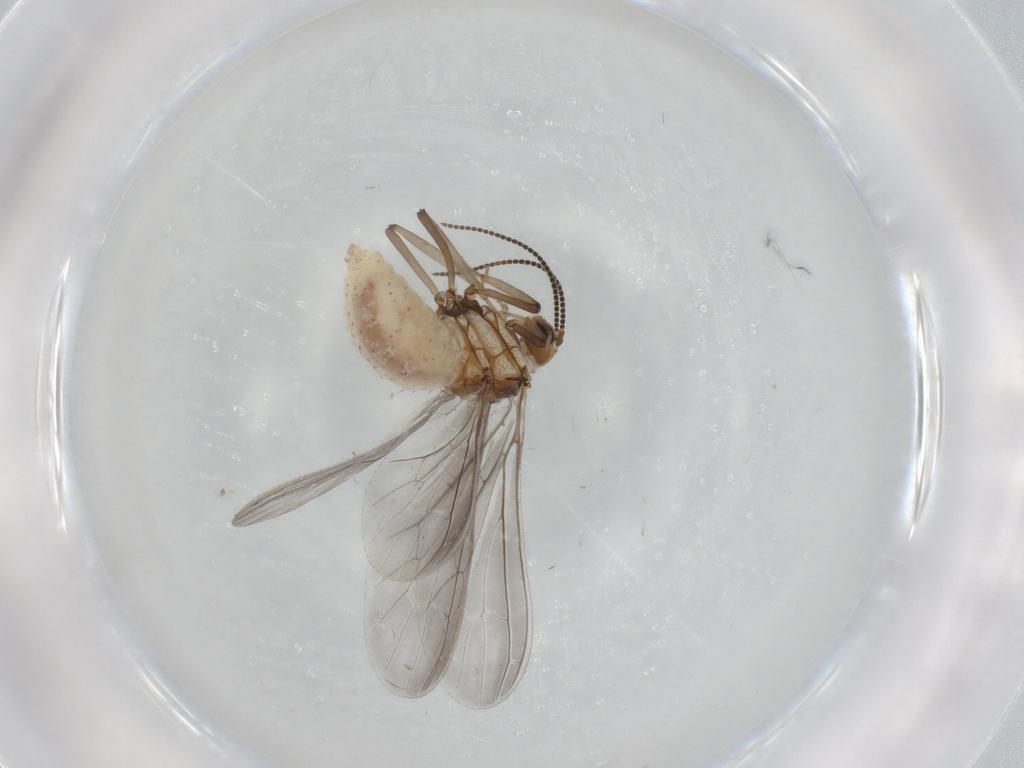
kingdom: Animalia
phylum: Arthropoda
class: Insecta
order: Neuroptera
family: Coniopterygidae
